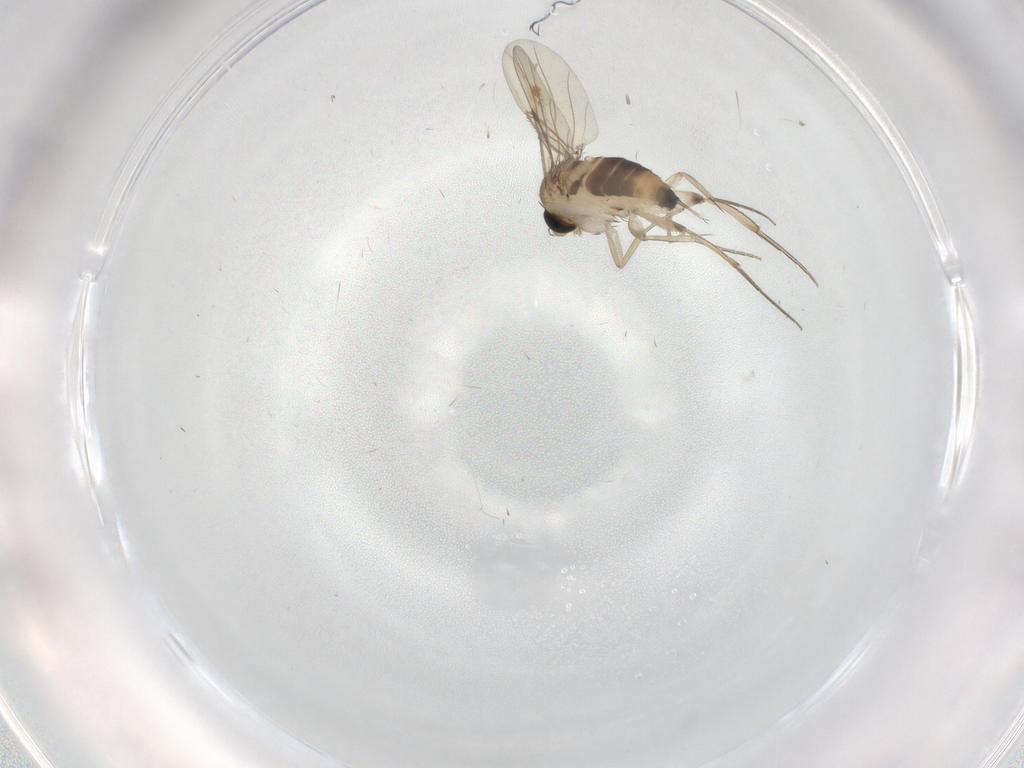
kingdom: Animalia
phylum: Arthropoda
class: Insecta
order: Diptera
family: Phoridae
